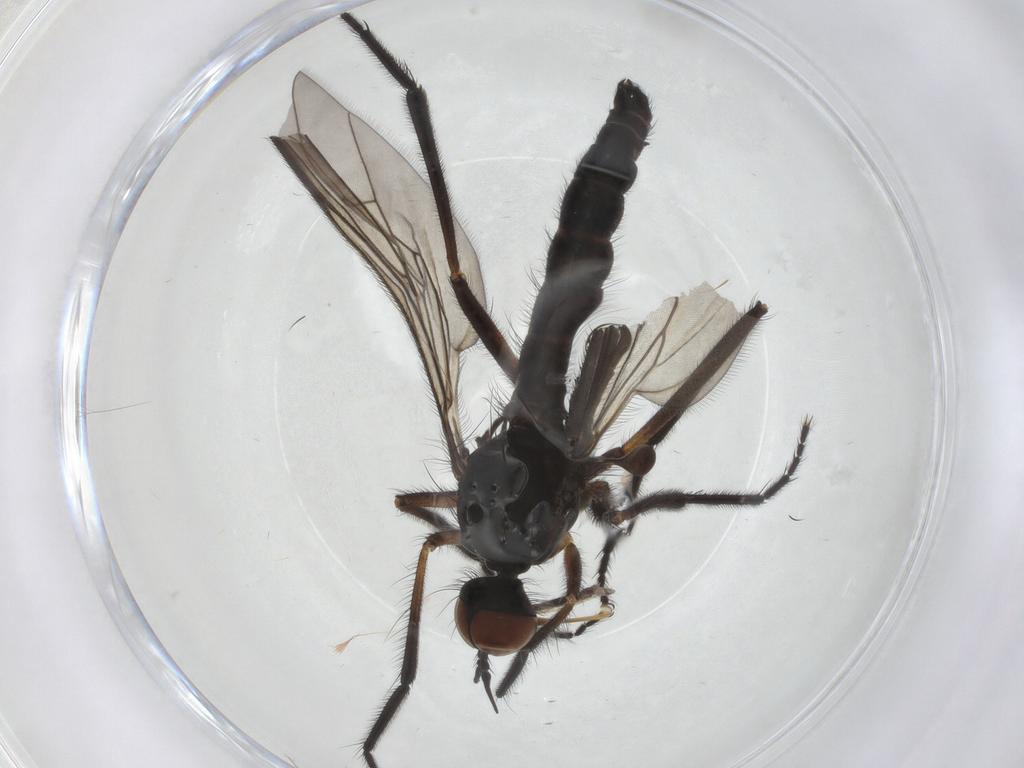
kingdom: Animalia
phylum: Arthropoda
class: Insecta
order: Diptera
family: Empididae
